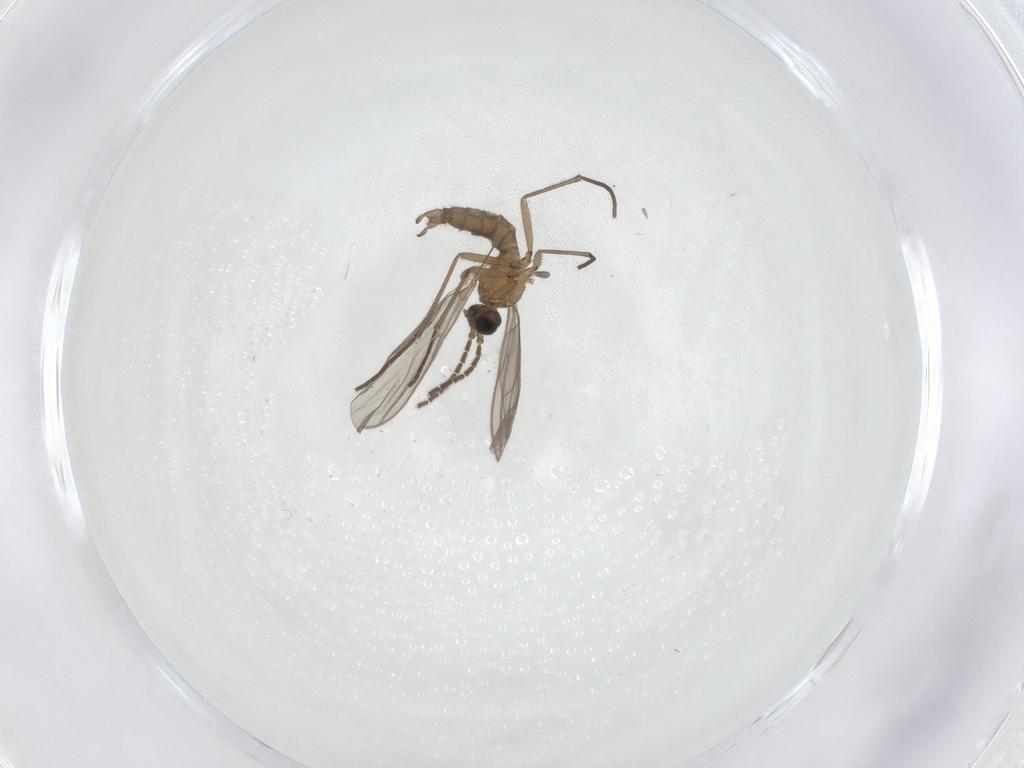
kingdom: Animalia
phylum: Arthropoda
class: Insecta
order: Diptera
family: Sciaridae
